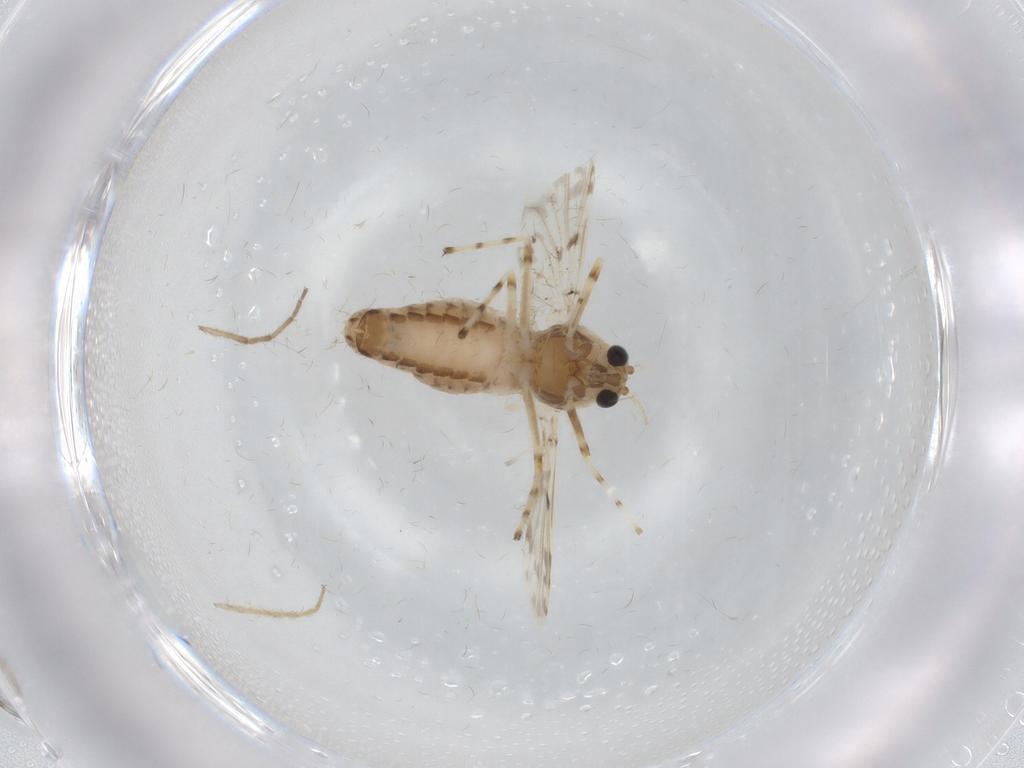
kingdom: Animalia
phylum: Arthropoda
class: Insecta
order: Diptera
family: Chironomidae
